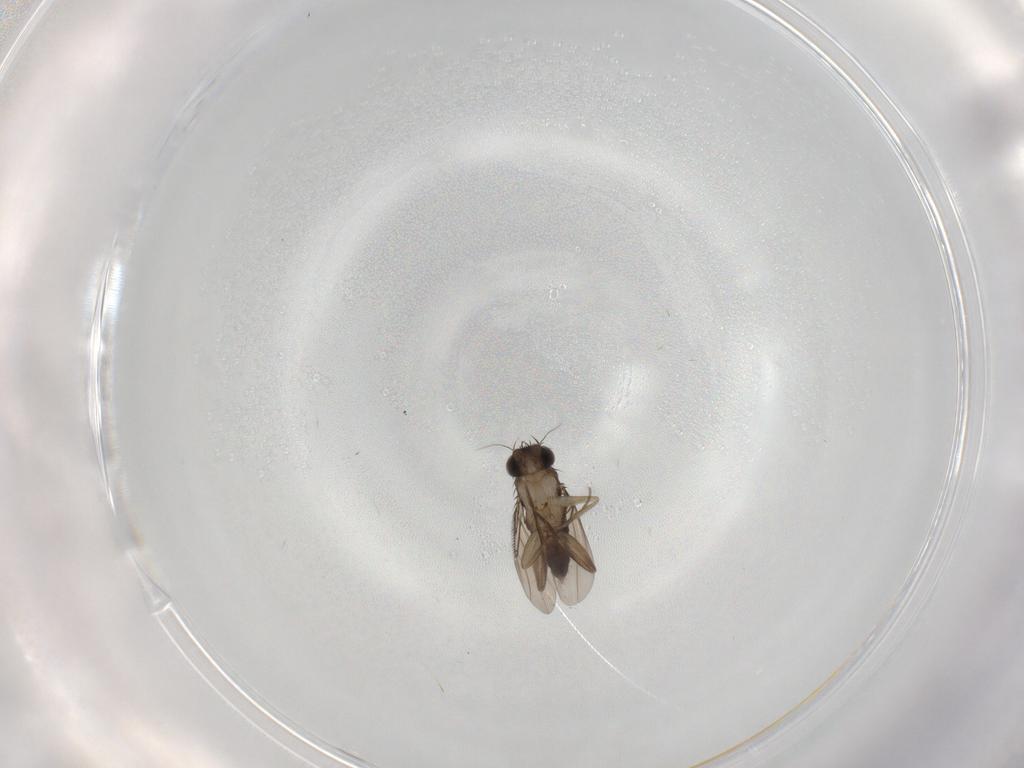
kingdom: Animalia
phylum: Arthropoda
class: Insecta
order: Diptera
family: Phoridae
